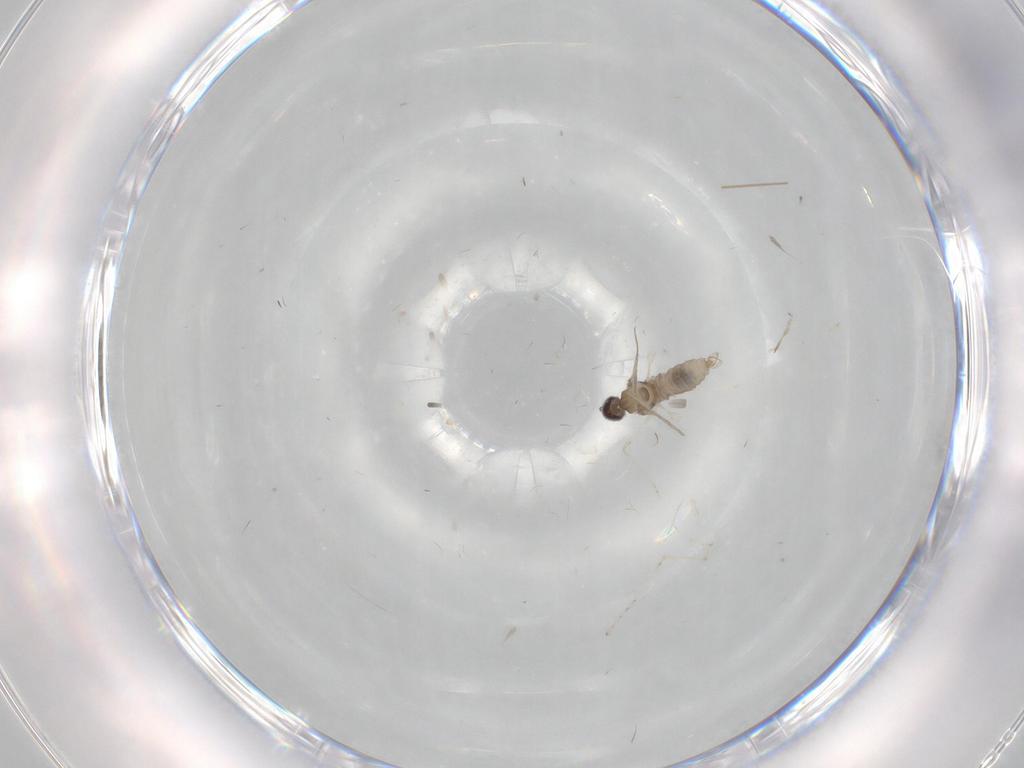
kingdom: Animalia
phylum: Arthropoda
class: Insecta
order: Diptera
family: Cecidomyiidae
